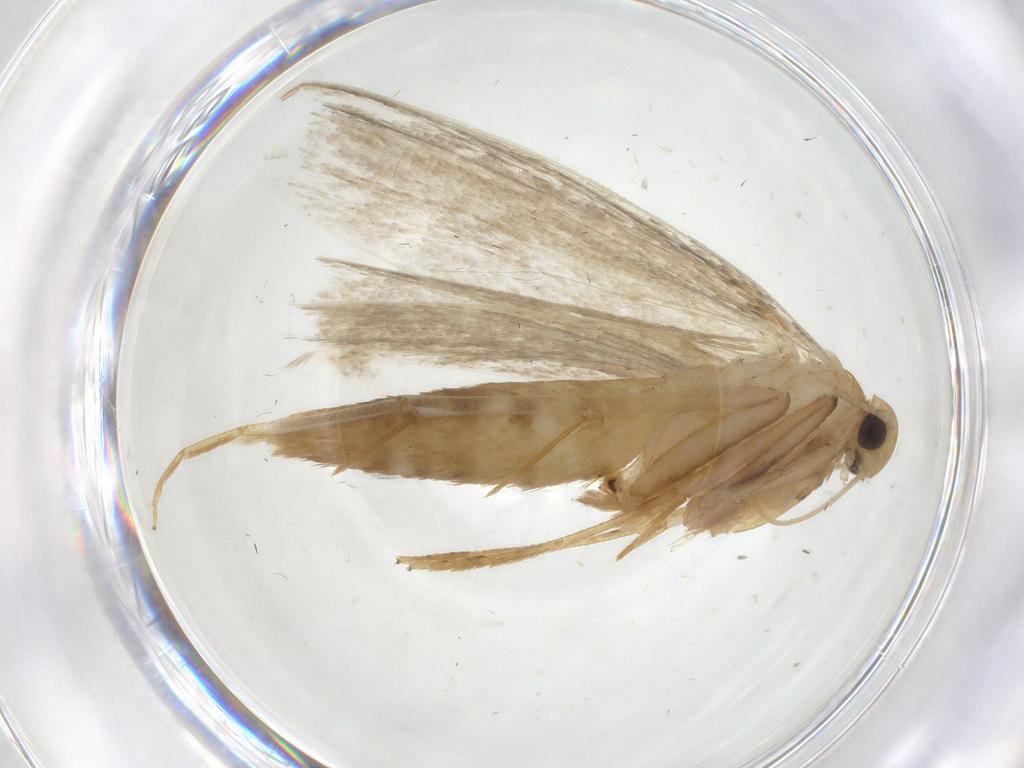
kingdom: Animalia
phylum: Arthropoda
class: Insecta
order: Lepidoptera
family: Gelechiidae
